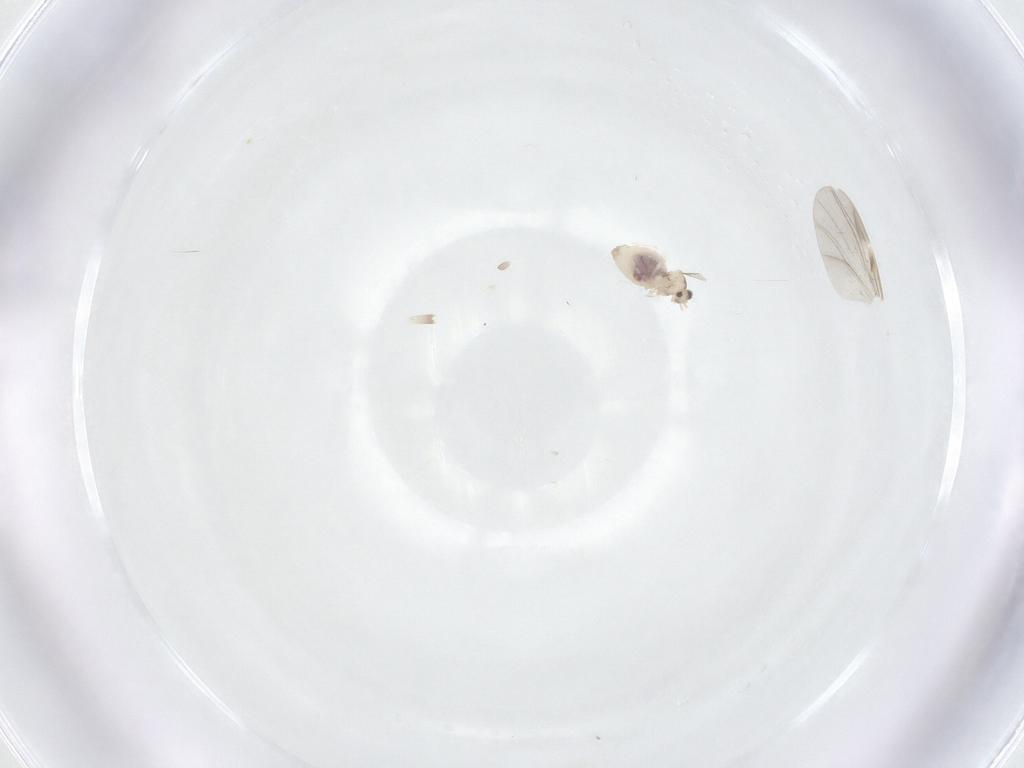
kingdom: Animalia
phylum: Arthropoda
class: Insecta
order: Diptera
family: Cecidomyiidae
